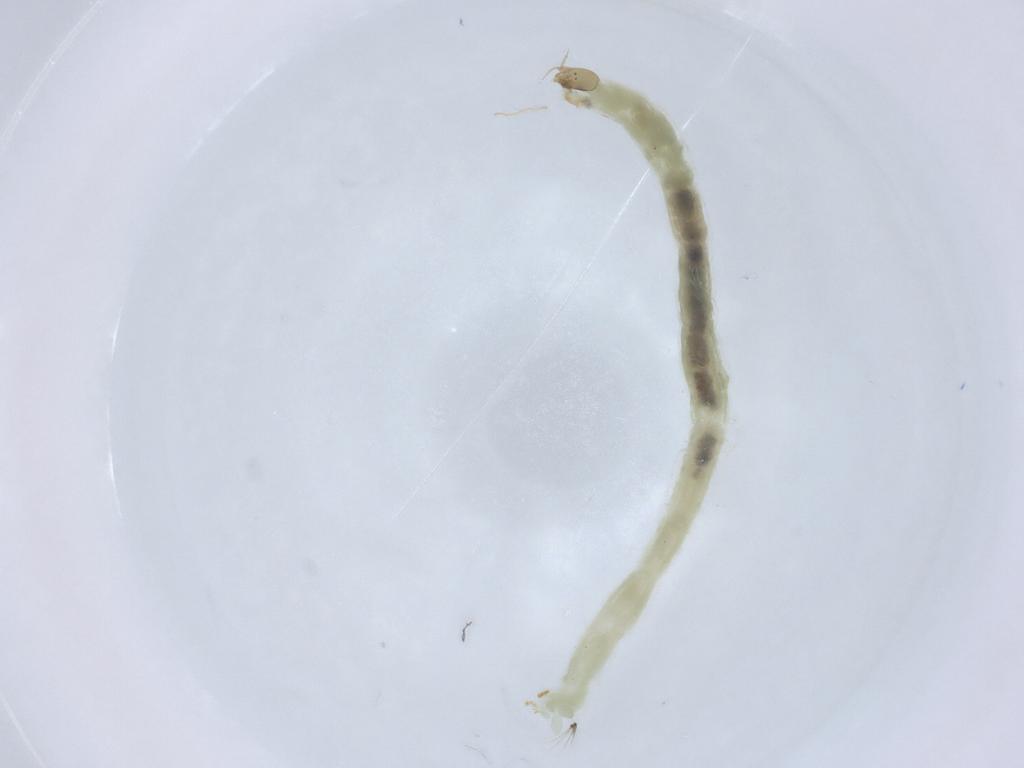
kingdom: Animalia
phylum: Arthropoda
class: Insecta
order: Diptera
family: Chironomidae
